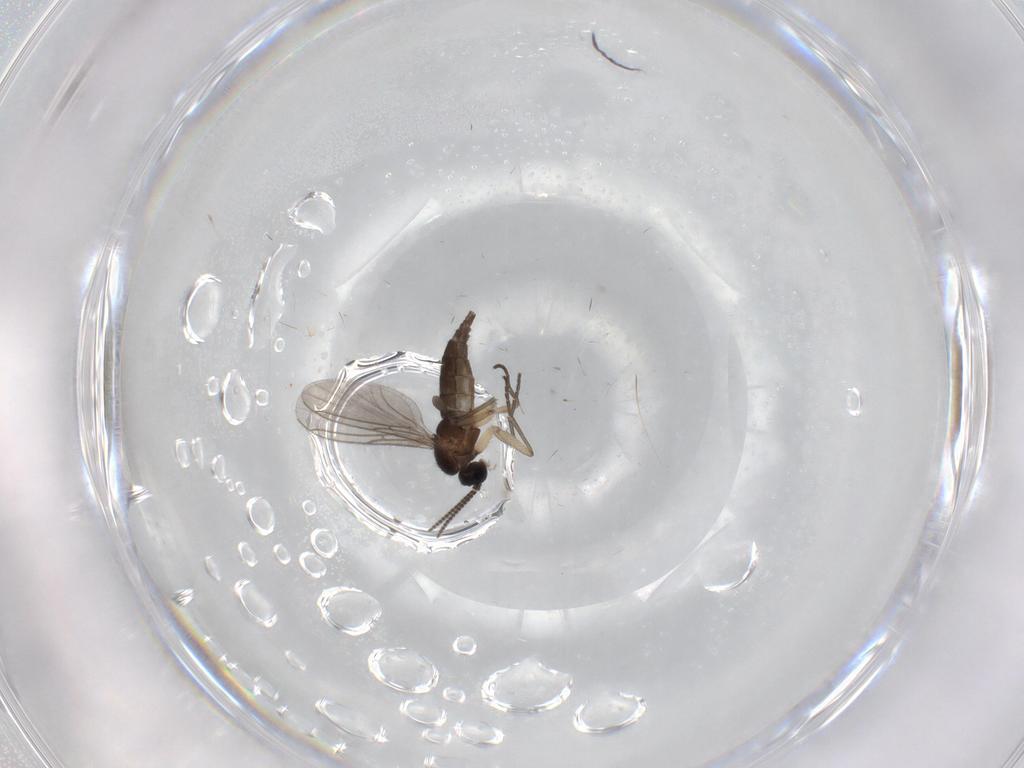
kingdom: Animalia
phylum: Arthropoda
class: Insecta
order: Diptera
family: Sciaridae
